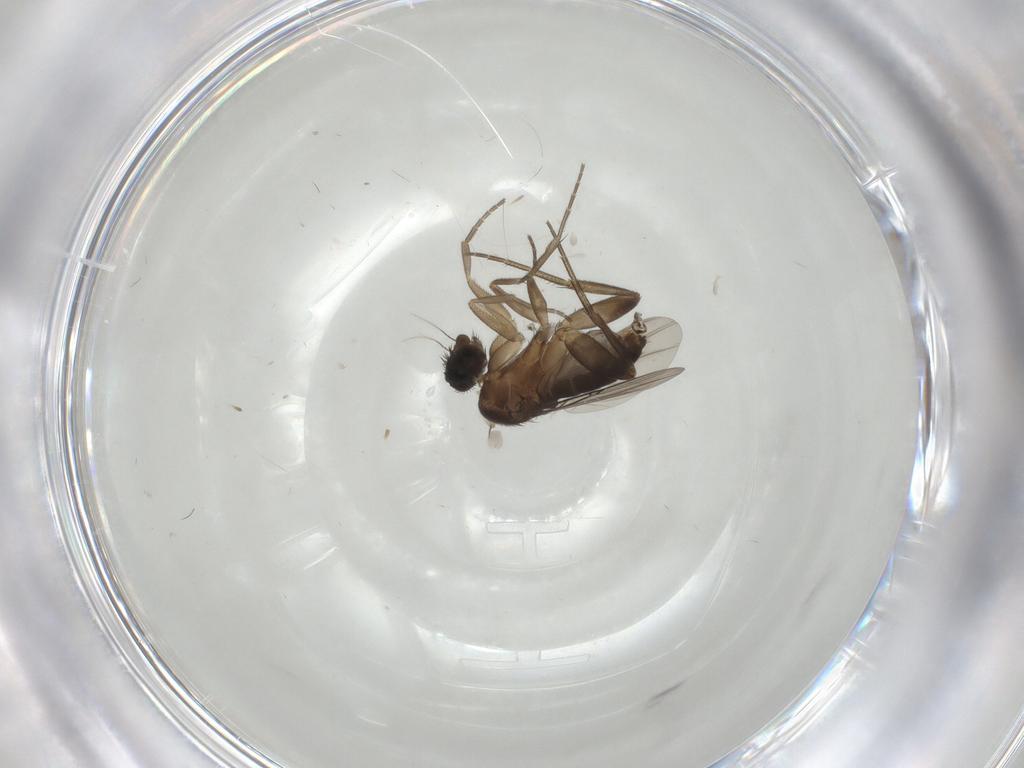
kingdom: Animalia
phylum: Arthropoda
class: Insecta
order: Diptera
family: Phoridae
